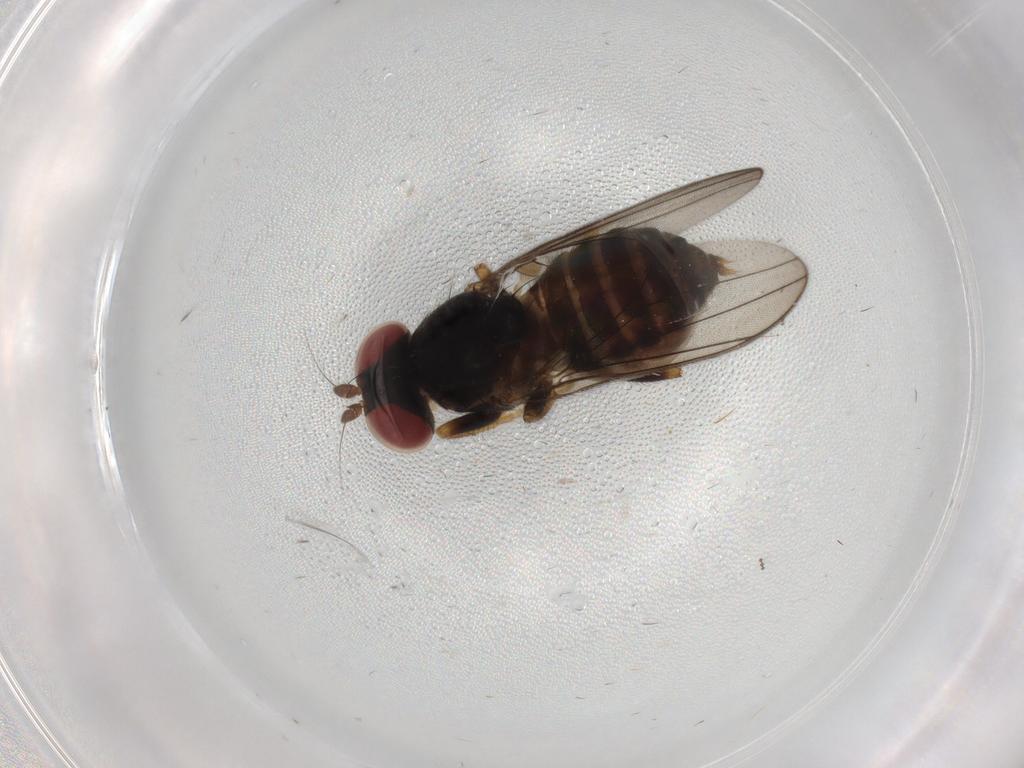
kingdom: Animalia
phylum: Arthropoda
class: Insecta
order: Diptera
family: Aulacigastridae
